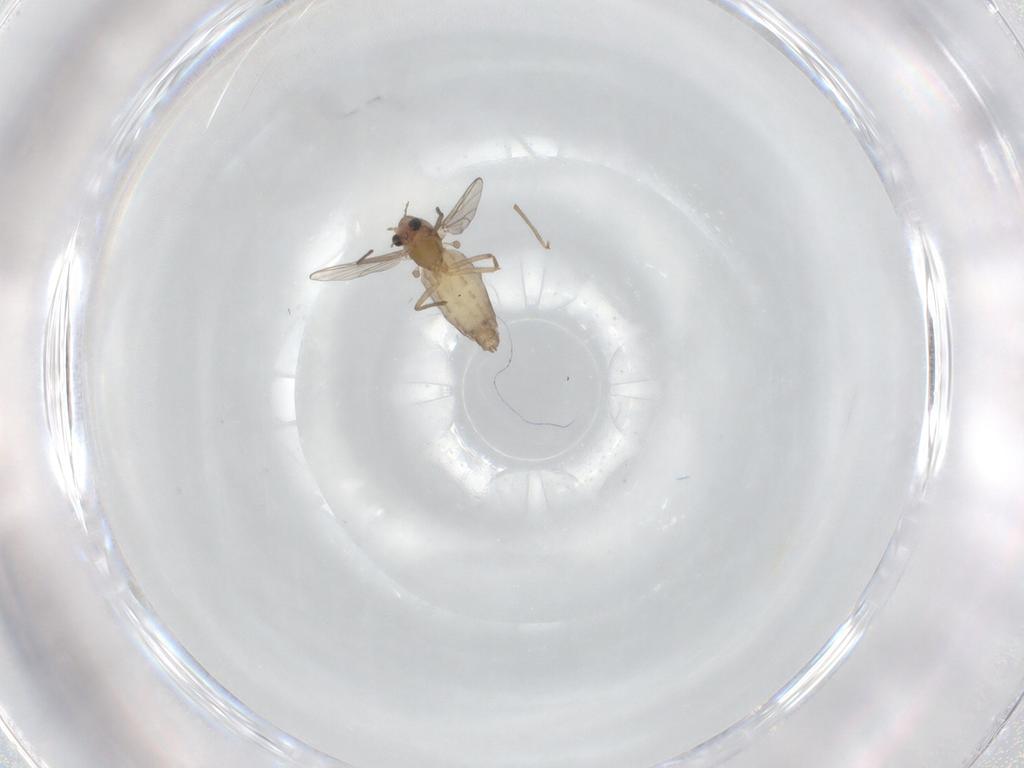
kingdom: Animalia
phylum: Arthropoda
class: Insecta
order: Diptera
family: Chironomidae
